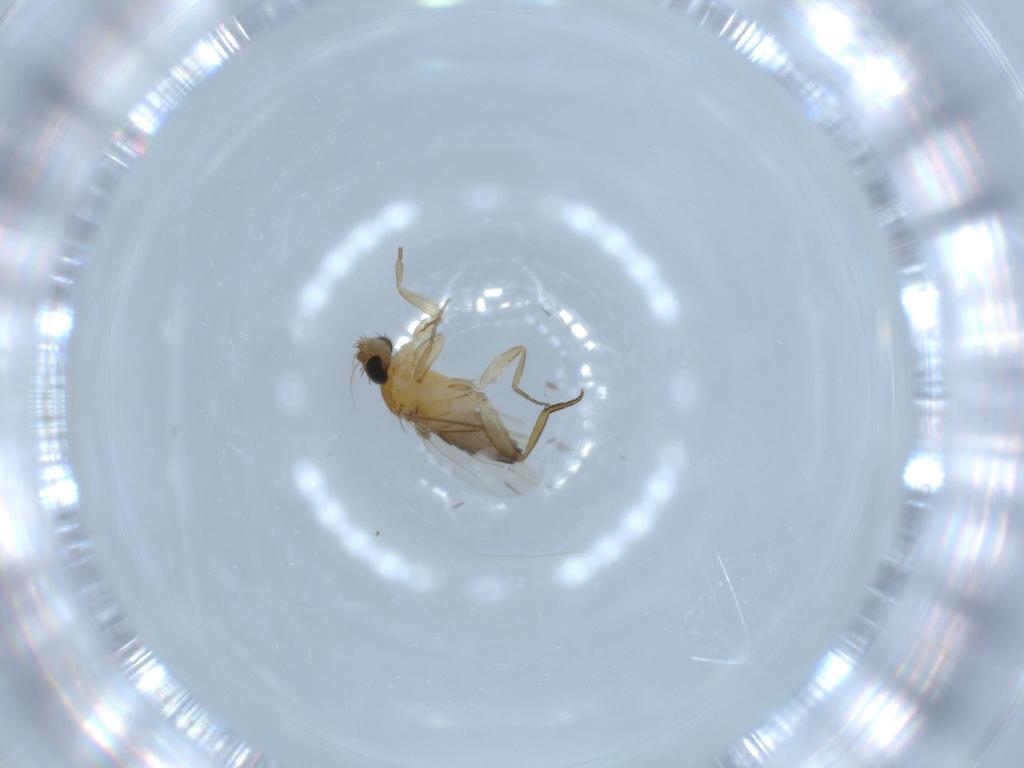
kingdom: Animalia
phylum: Arthropoda
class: Insecta
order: Diptera
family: Phoridae
